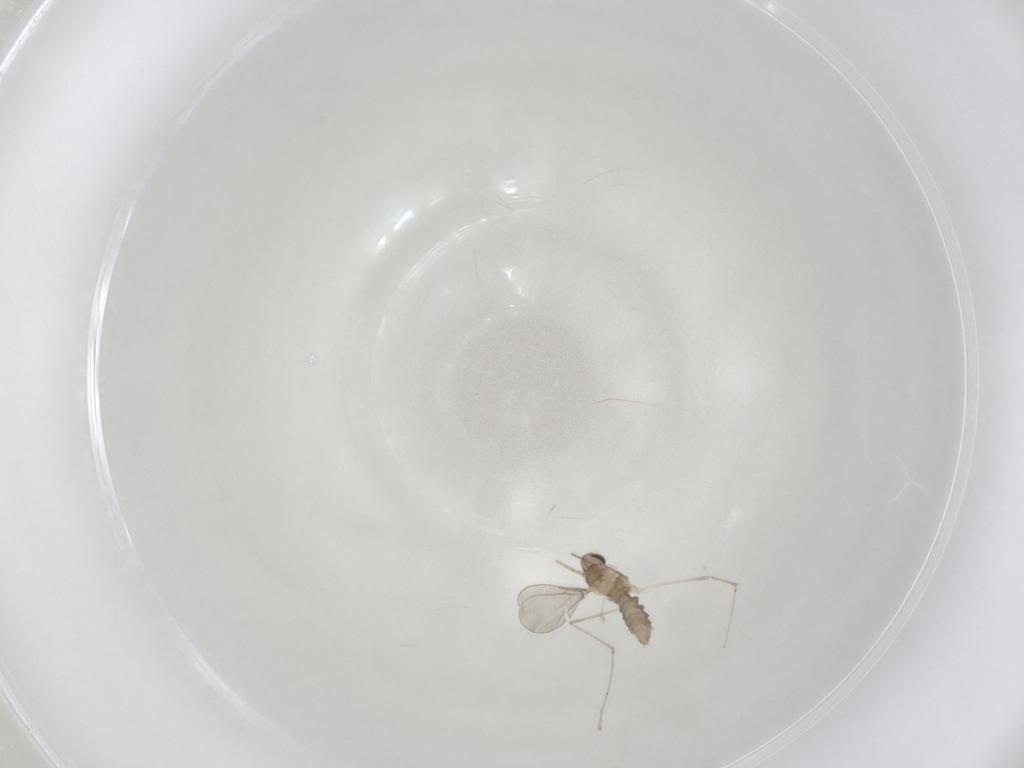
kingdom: Animalia
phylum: Arthropoda
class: Insecta
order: Diptera
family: Cecidomyiidae
